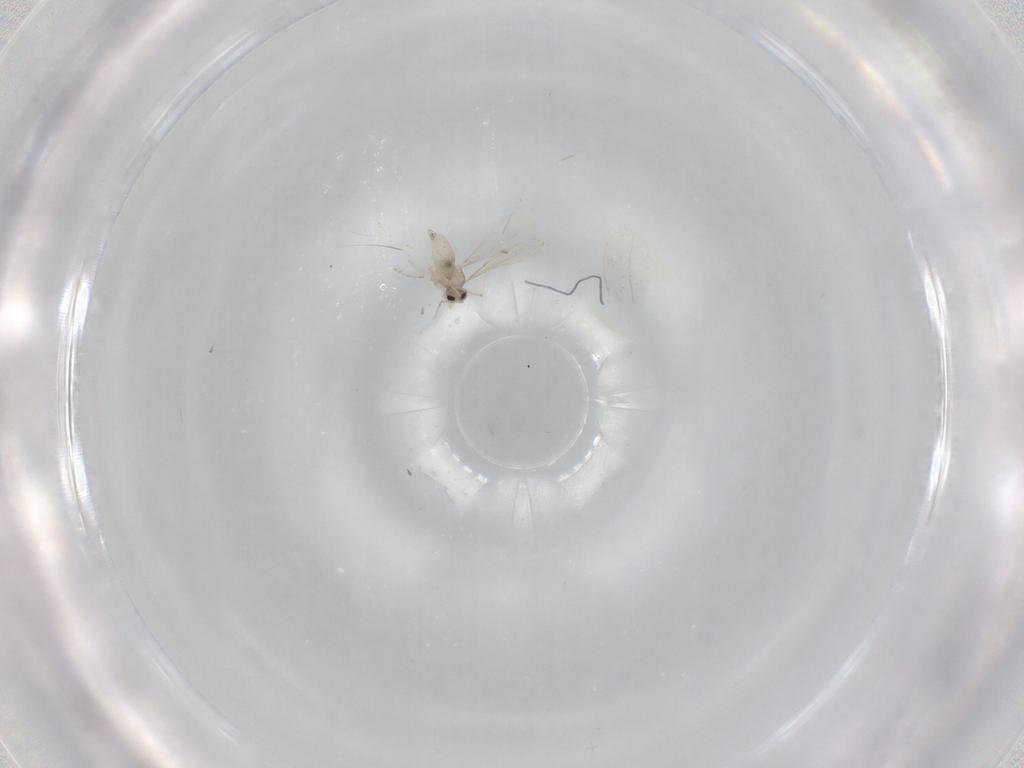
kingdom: Animalia
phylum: Arthropoda
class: Insecta
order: Diptera
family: Cecidomyiidae
